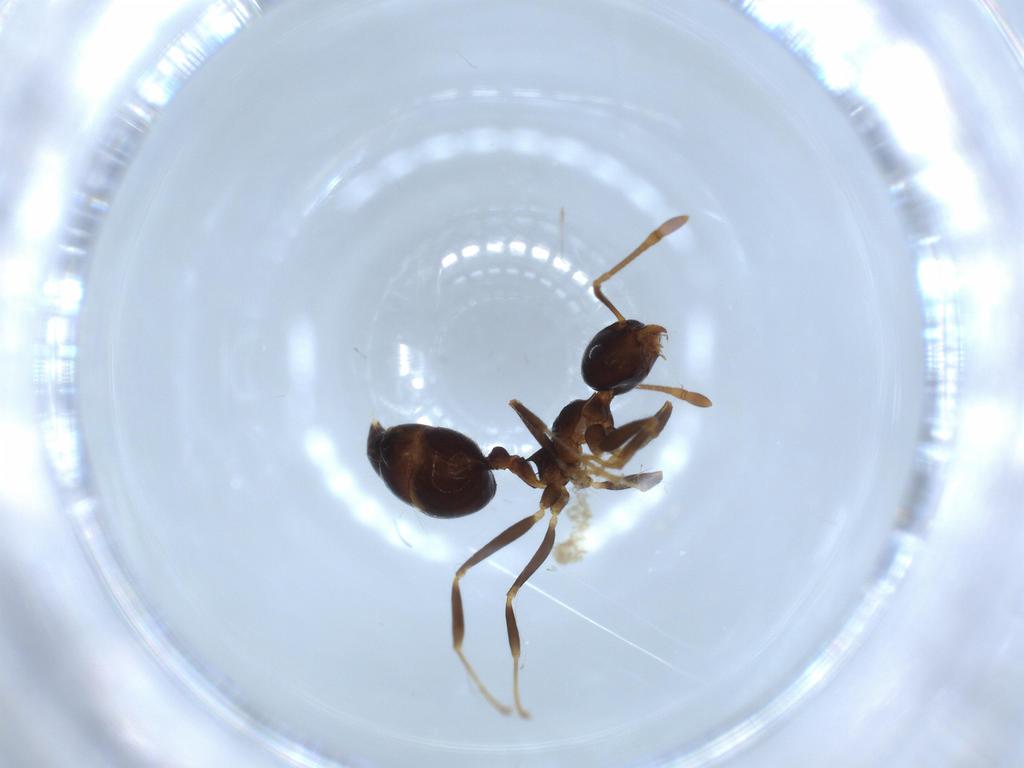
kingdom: Animalia
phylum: Arthropoda
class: Insecta
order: Hymenoptera
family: Formicidae
